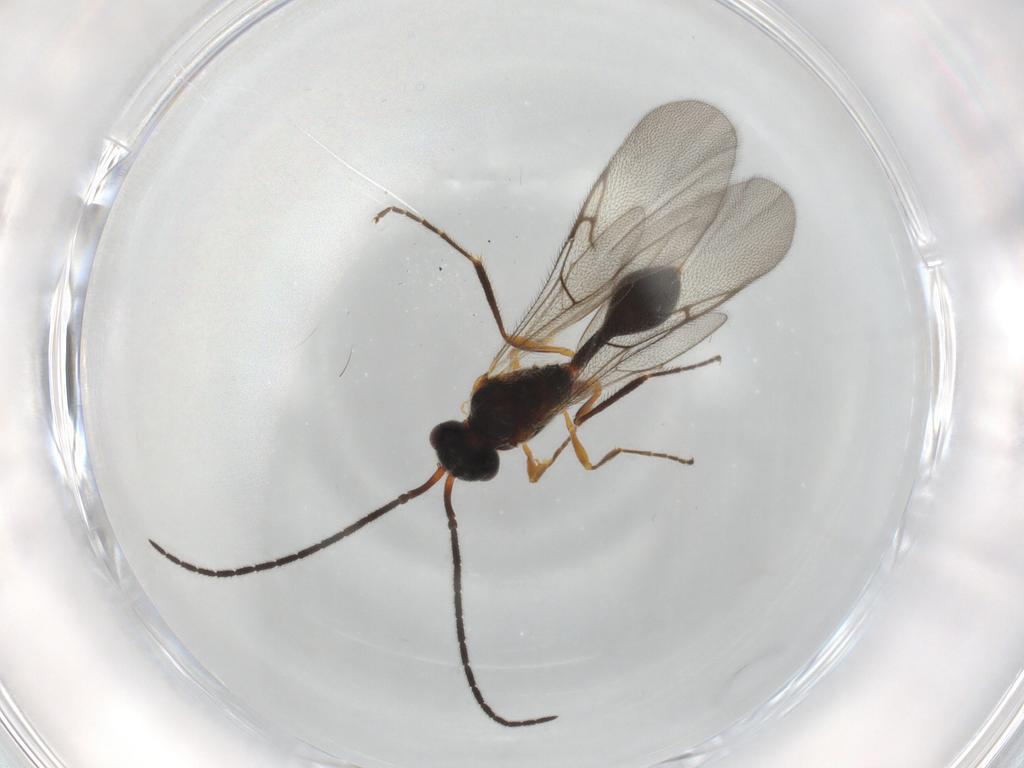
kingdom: Animalia
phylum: Arthropoda
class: Insecta
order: Hymenoptera
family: Diapriidae
